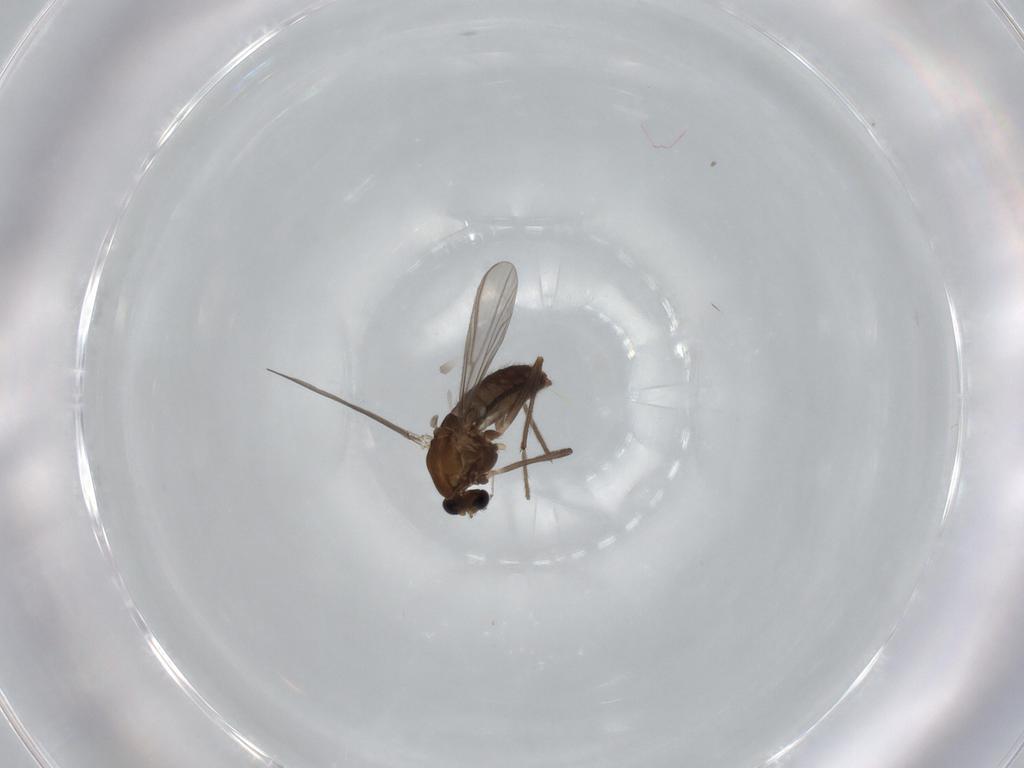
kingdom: Animalia
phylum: Arthropoda
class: Insecta
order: Diptera
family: Chironomidae
